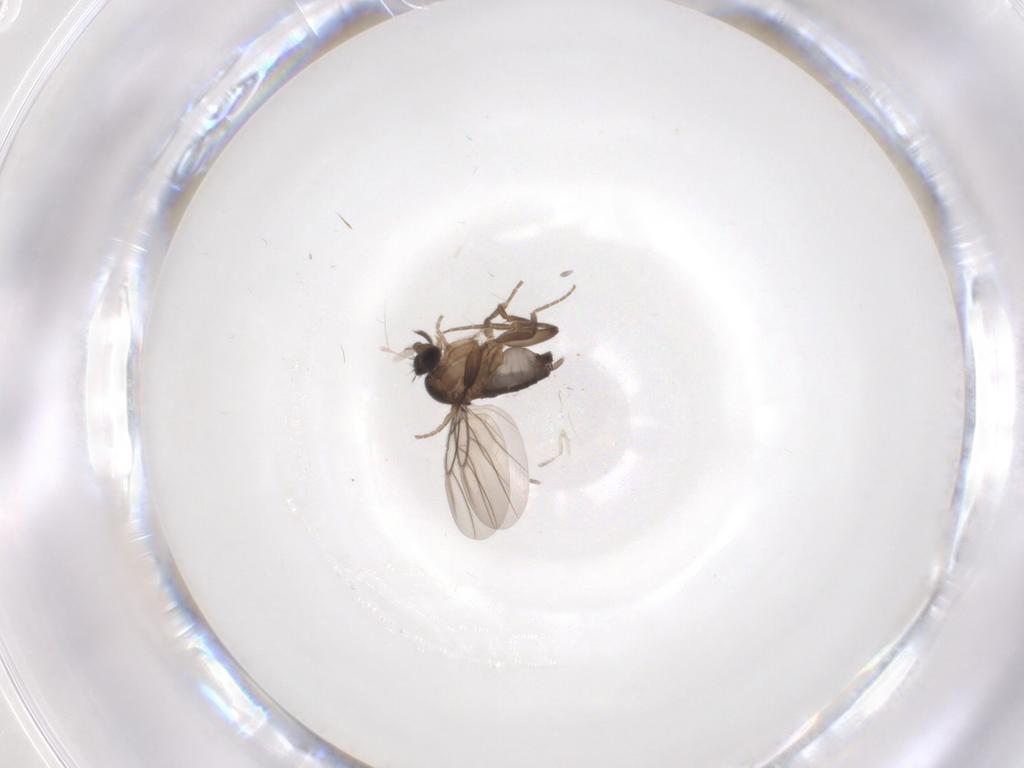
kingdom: Animalia
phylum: Arthropoda
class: Insecta
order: Diptera
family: Phoridae
